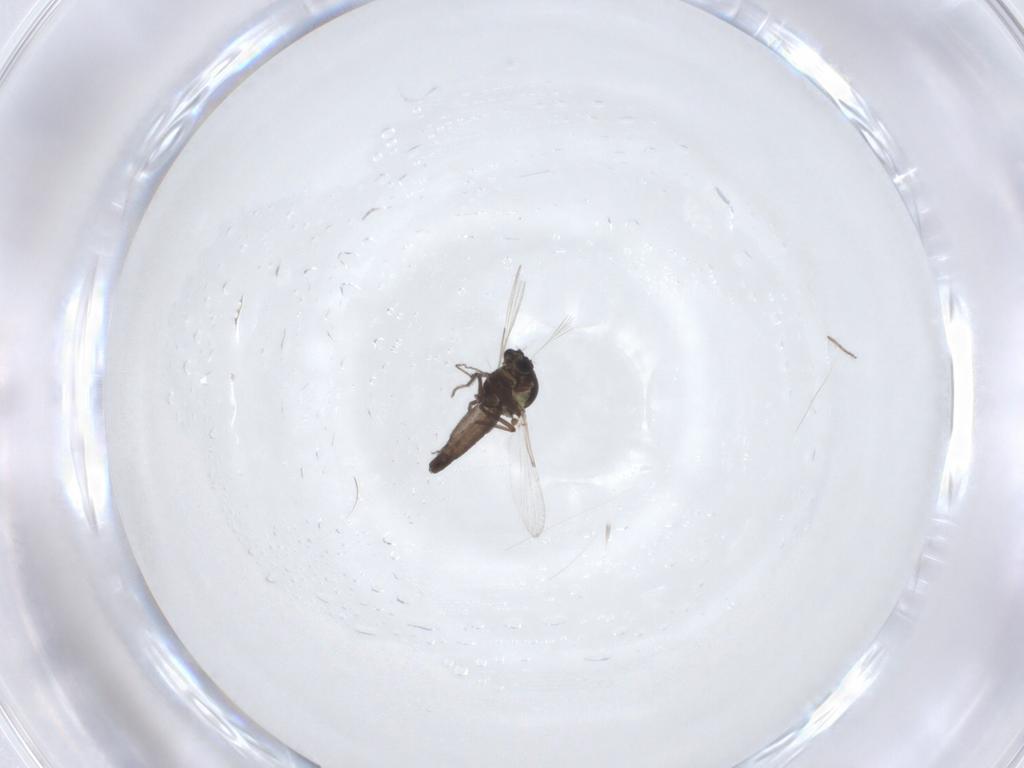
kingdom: Animalia
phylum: Arthropoda
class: Insecta
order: Diptera
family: Ceratopogonidae
